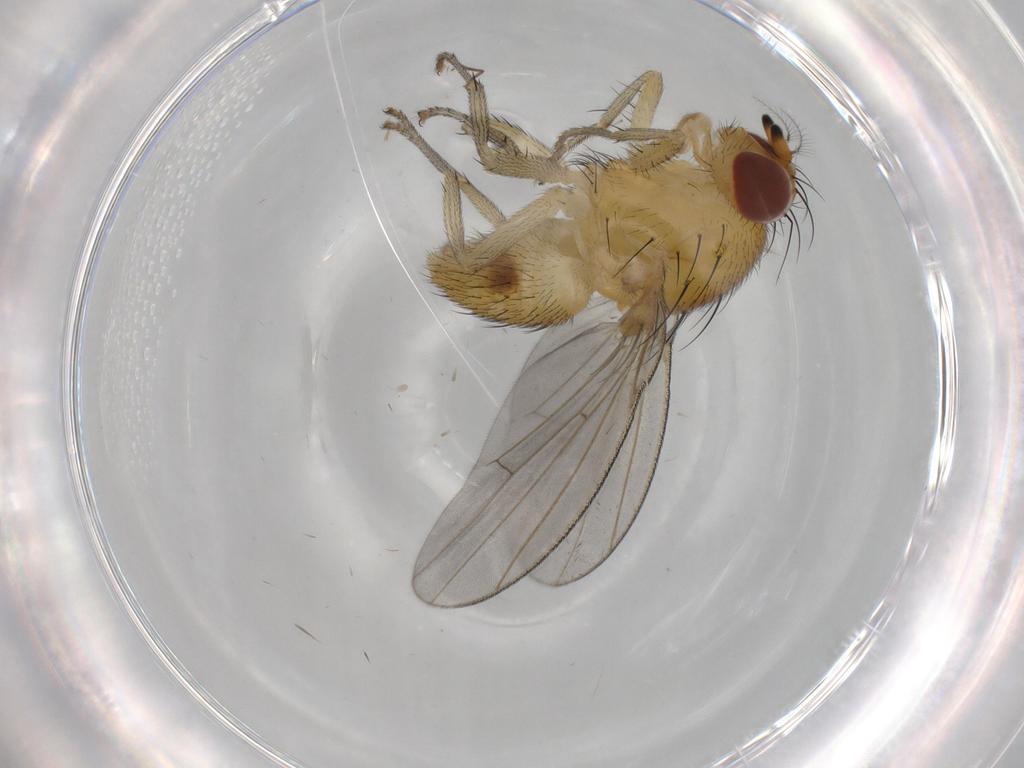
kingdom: Animalia
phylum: Arthropoda
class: Insecta
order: Diptera
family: Lauxaniidae
